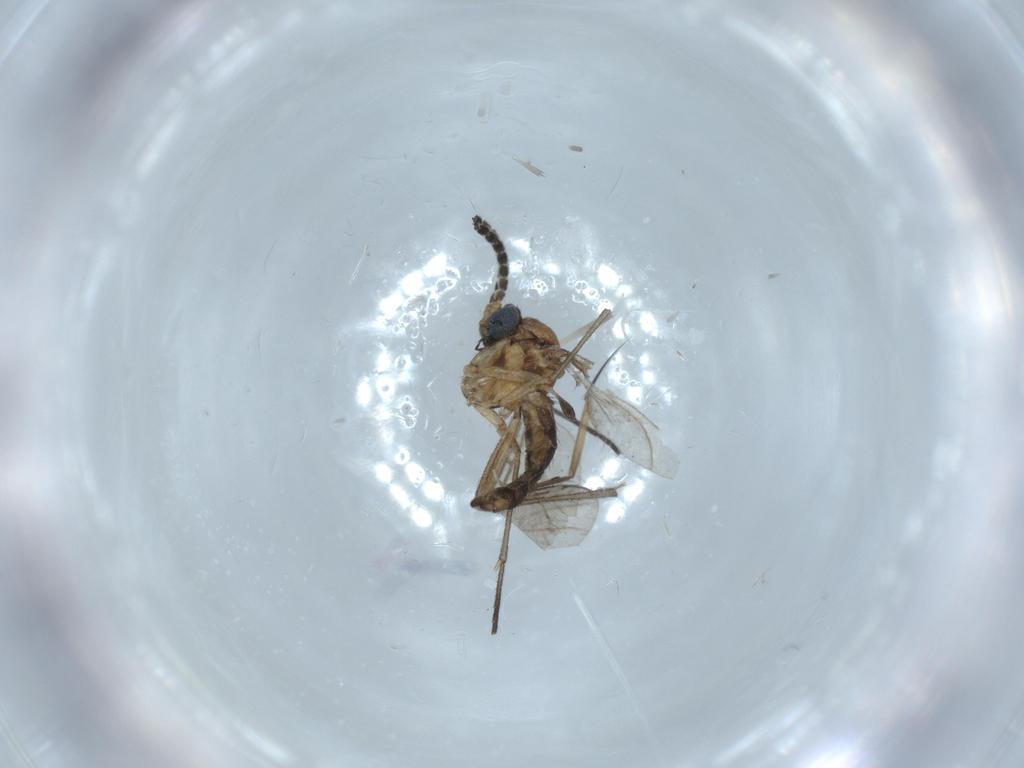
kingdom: Animalia
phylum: Arthropoda
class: Insecta
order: Diptera
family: Sciaridae
